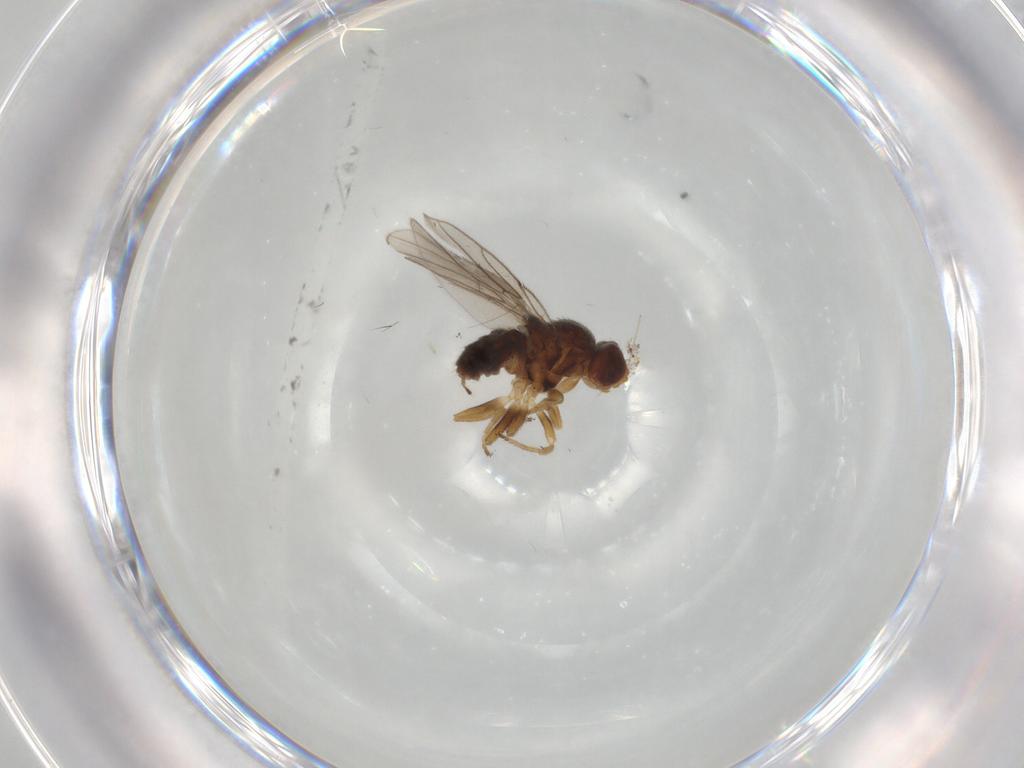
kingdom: Animalia
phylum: Arthropoda
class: Insecta
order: Diptera
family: Chloropidae
